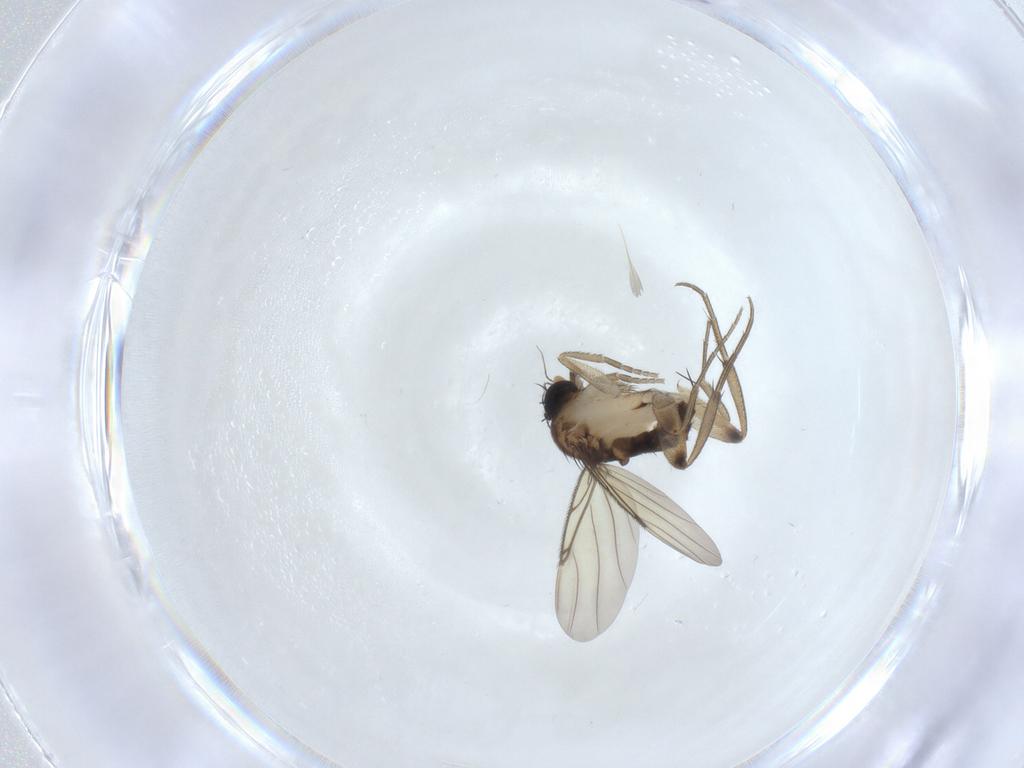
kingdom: Animalia
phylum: Arthropoda
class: Insecta
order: Diptera
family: Phoridae
